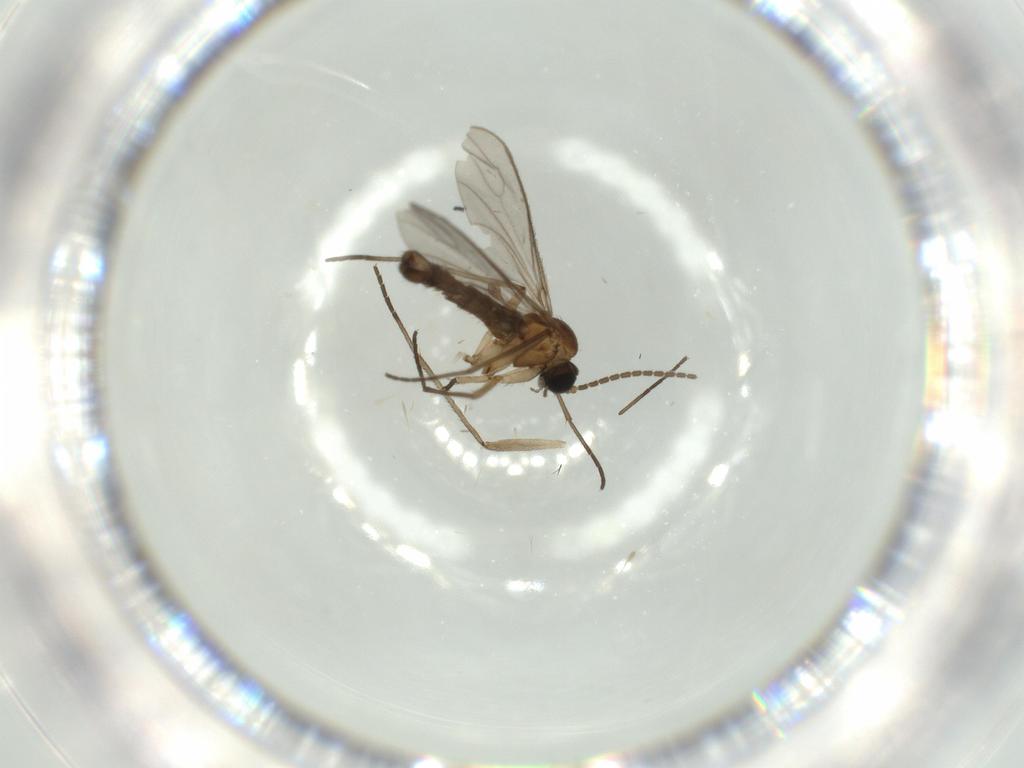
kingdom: Animalia
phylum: Arthropoda
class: Insecta
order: Diptera
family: Sciaridae
